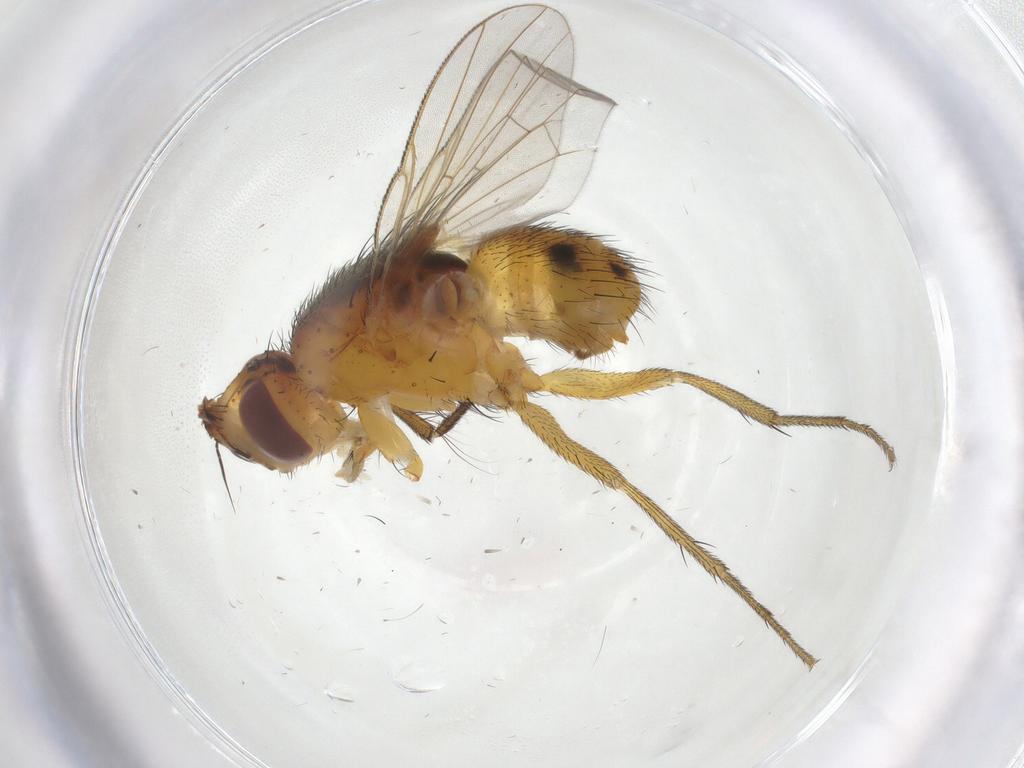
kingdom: Animalia
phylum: Arthropoda
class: Insecta
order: Diptera
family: Muscidae
